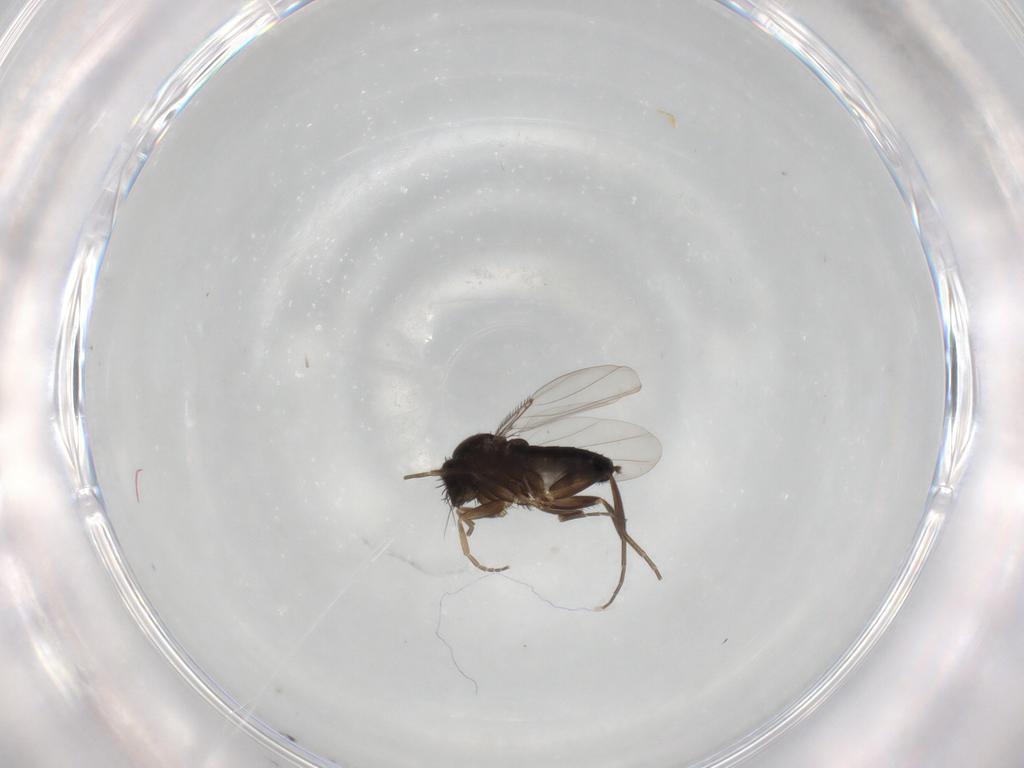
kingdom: Animalia
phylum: Arthropoda
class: Insecta
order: Diptera
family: Phoridae
